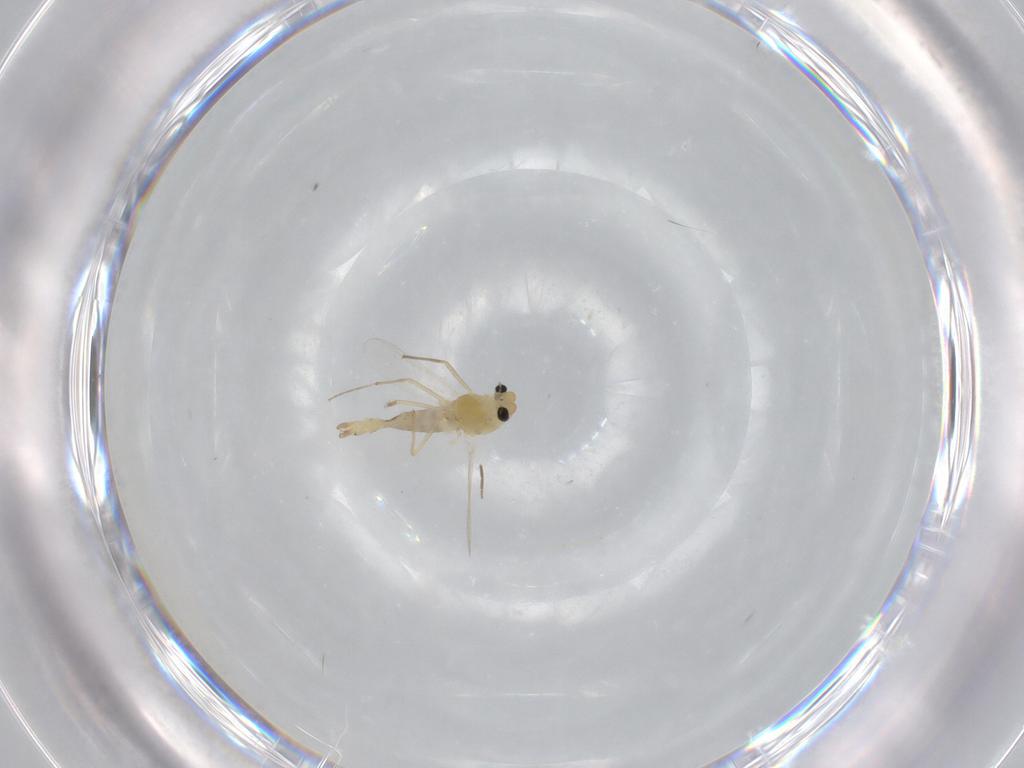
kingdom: Animalia
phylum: Arthropoda
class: Insecta
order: Diptera
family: Chironomidae
